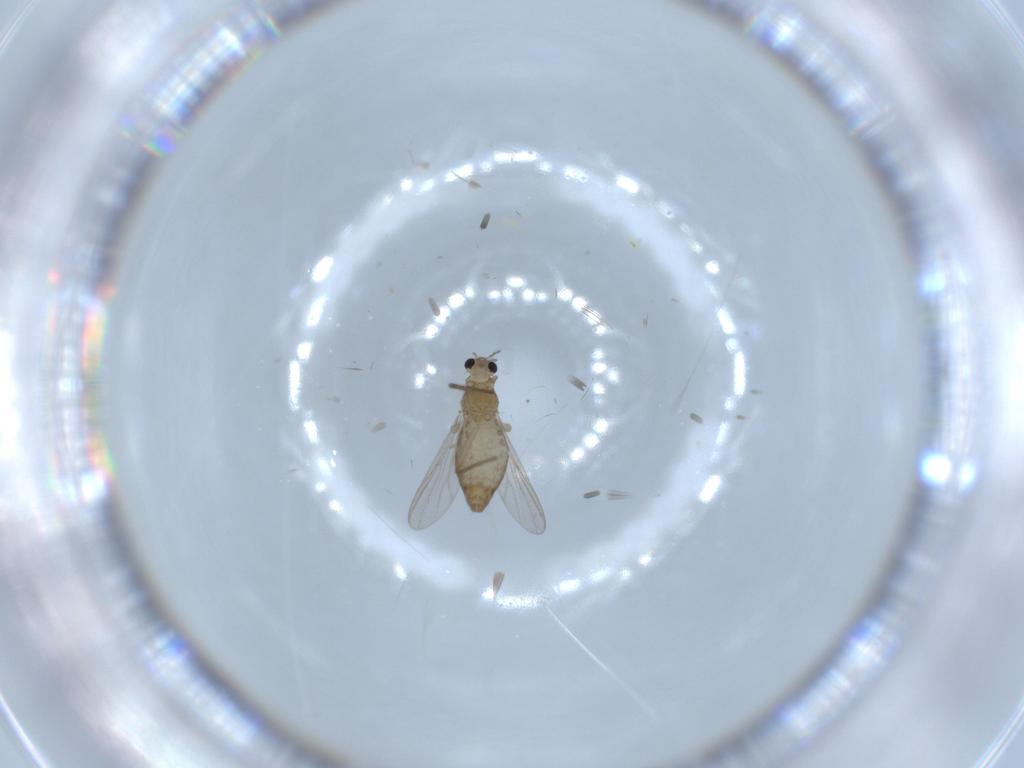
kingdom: Animalia
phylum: Arthropoda
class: Insecta
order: Diptera
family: Chironomidae
